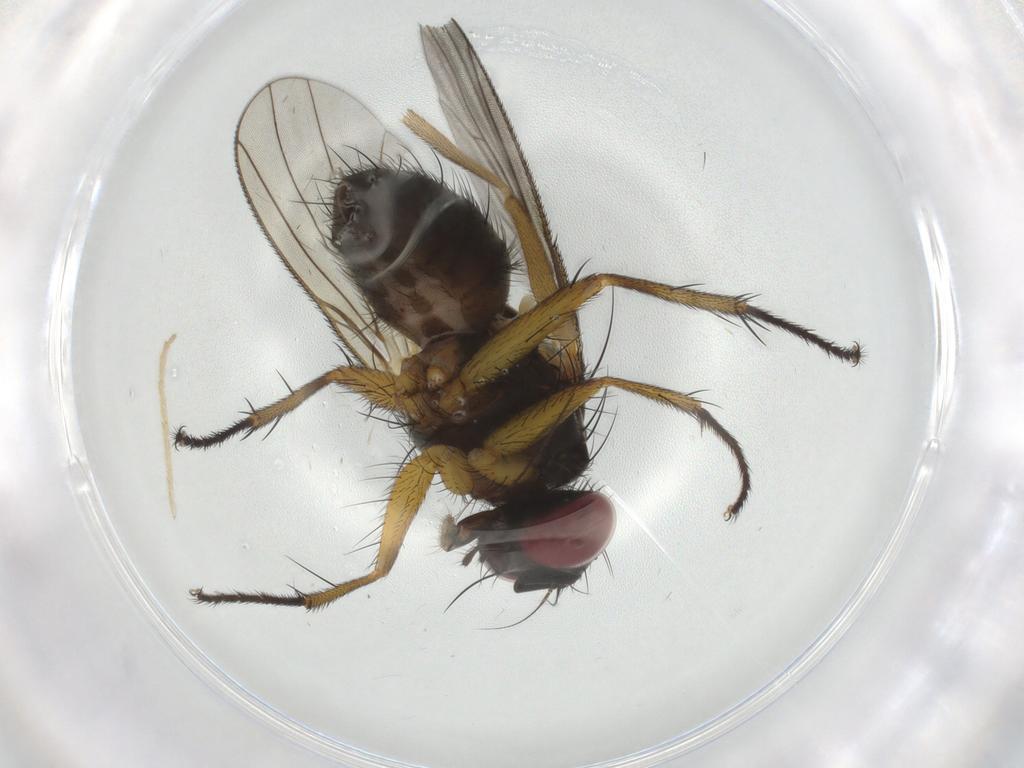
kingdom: Animalia
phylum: Arthropoda
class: Insecta
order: Diptera
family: Muscidae
